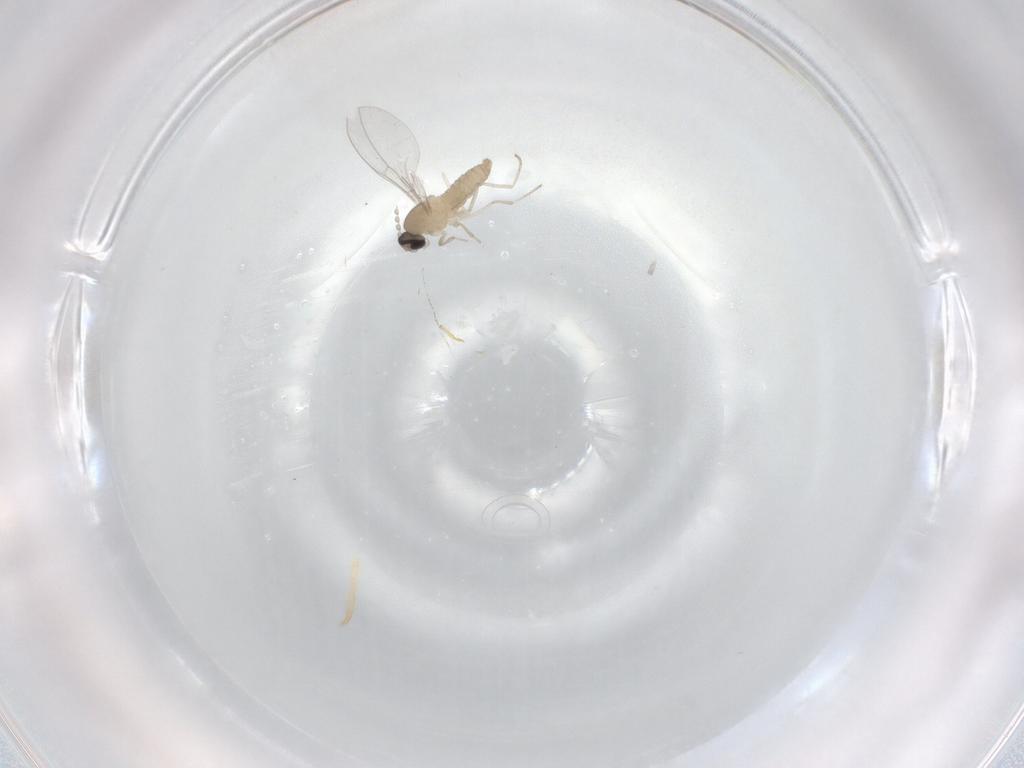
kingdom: Animalia
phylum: Arthropoda
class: Insecta
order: Diptera
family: Cecidomyiidae
